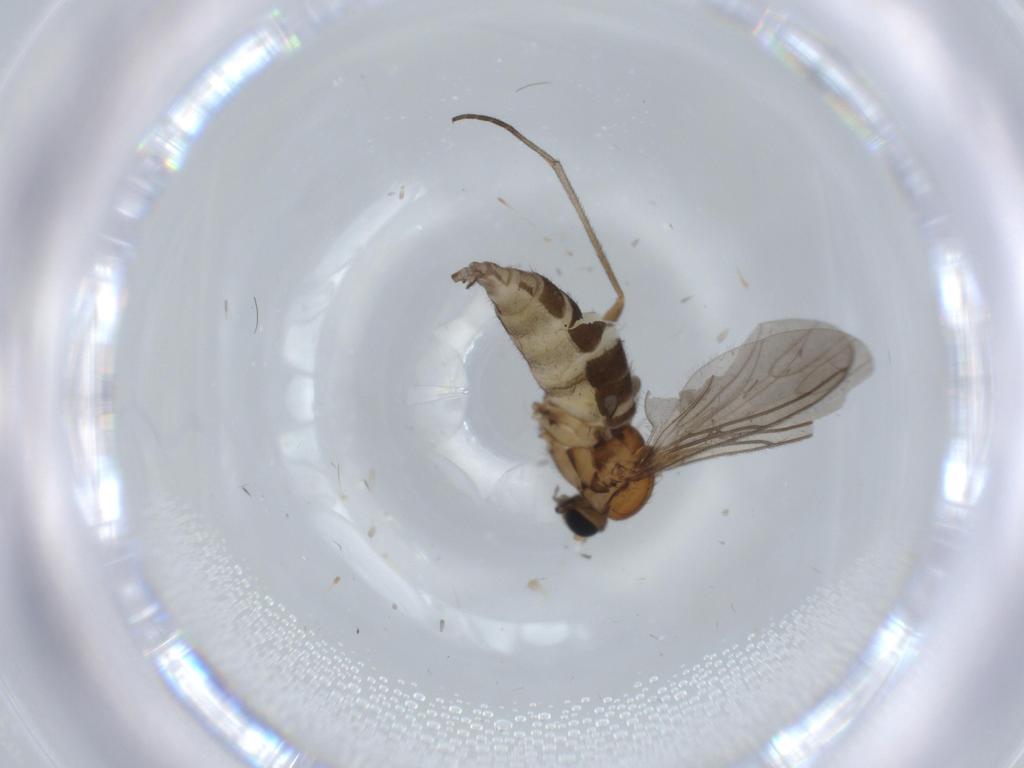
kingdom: Animalia
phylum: Arthropoda
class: Insecta
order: Diptera
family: Sciaridae
